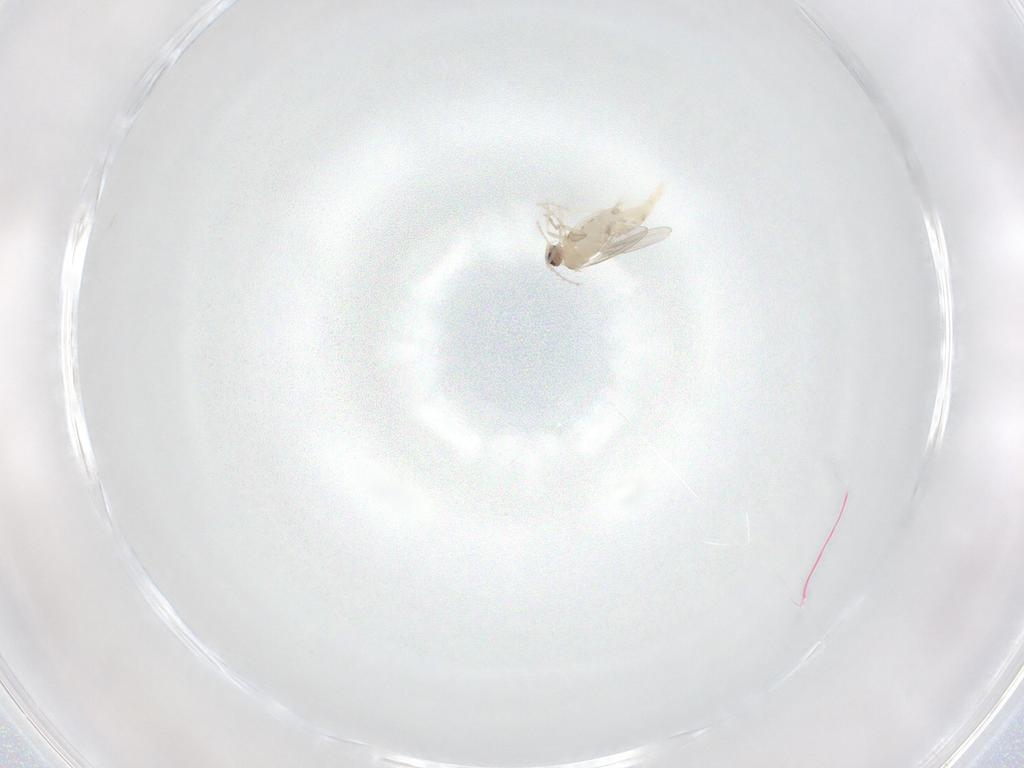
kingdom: Animalia
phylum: Arthropoda
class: Insecta
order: Diptera
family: Cecidomyiidae
